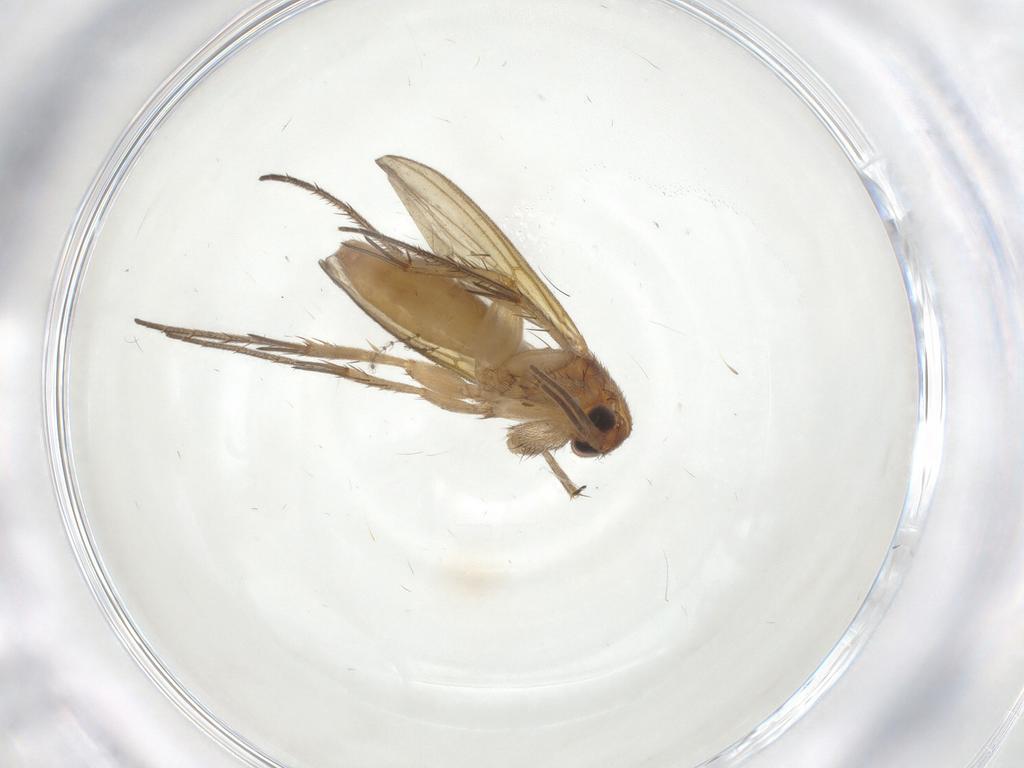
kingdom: Animalia
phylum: Arthropoda
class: Insecta
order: Diptera
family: Mycetophilidae
